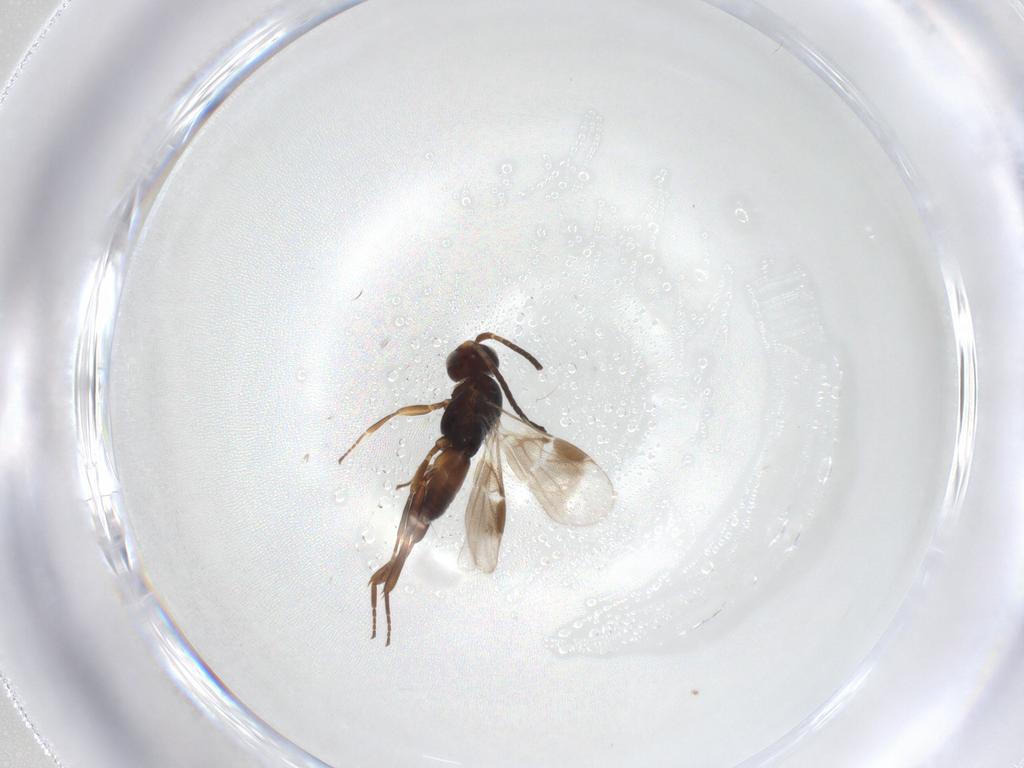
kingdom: Animalia
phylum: Arthropoda
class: Insecta
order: Hymenoptera
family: Braconidae
